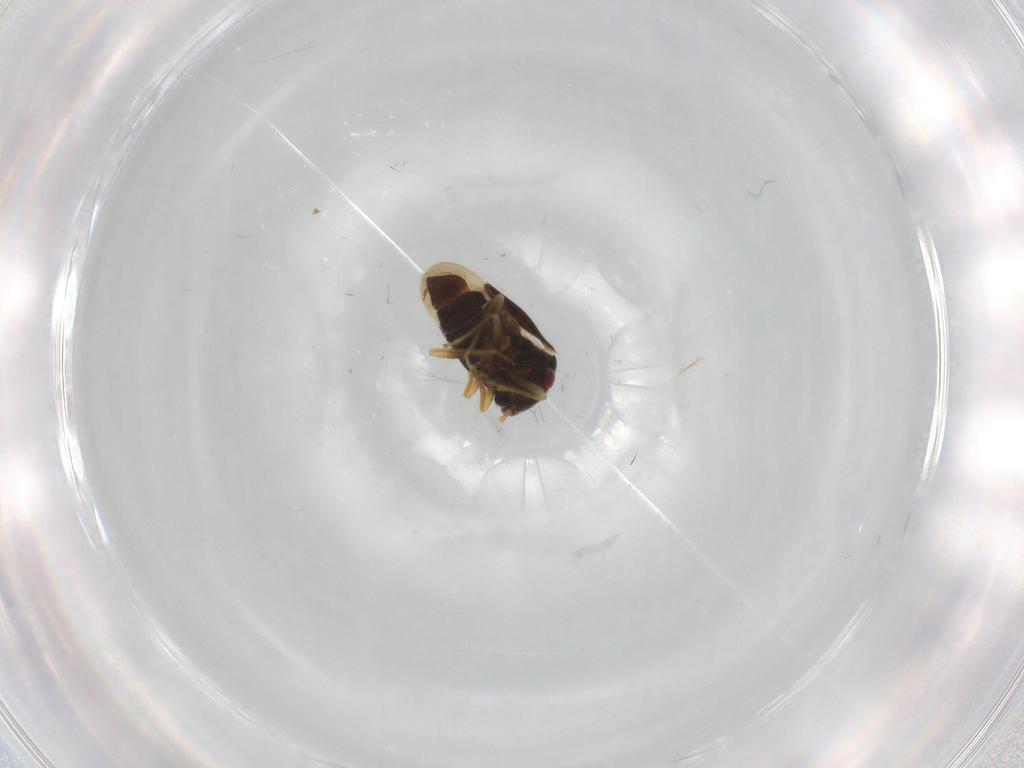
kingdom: Animalia
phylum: Arthropoda
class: Insecta
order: Hemiptera
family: Schizopteridae
